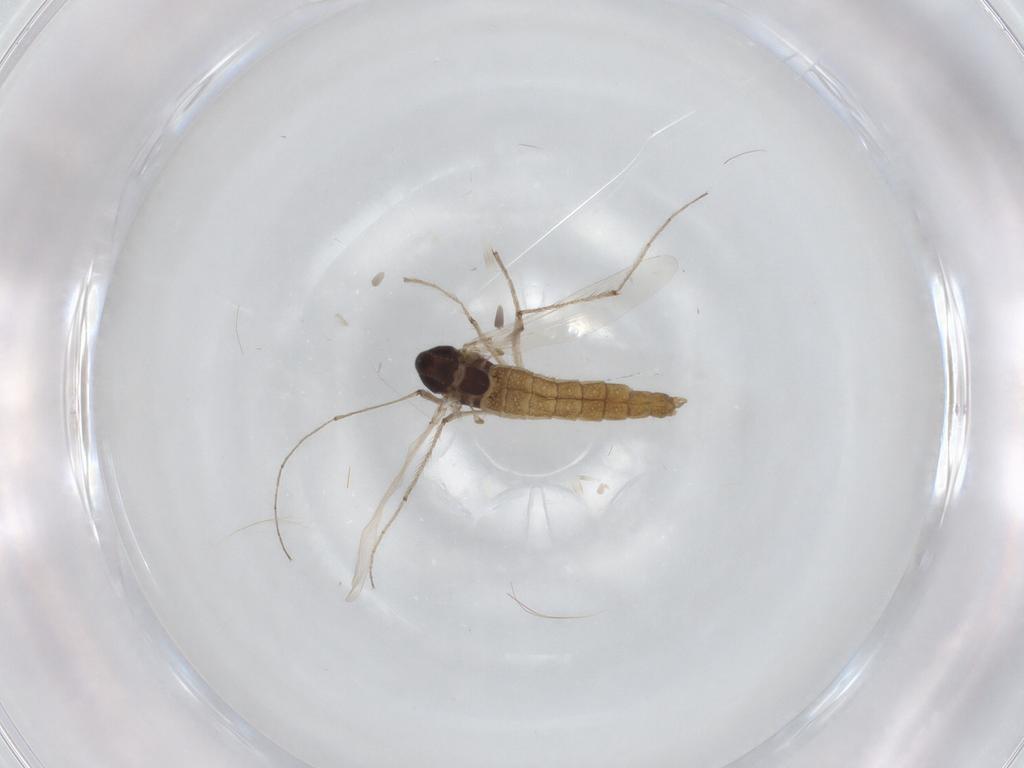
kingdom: Animalia
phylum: Arthropoda
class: Insecta
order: Diptera
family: Chironomidae
